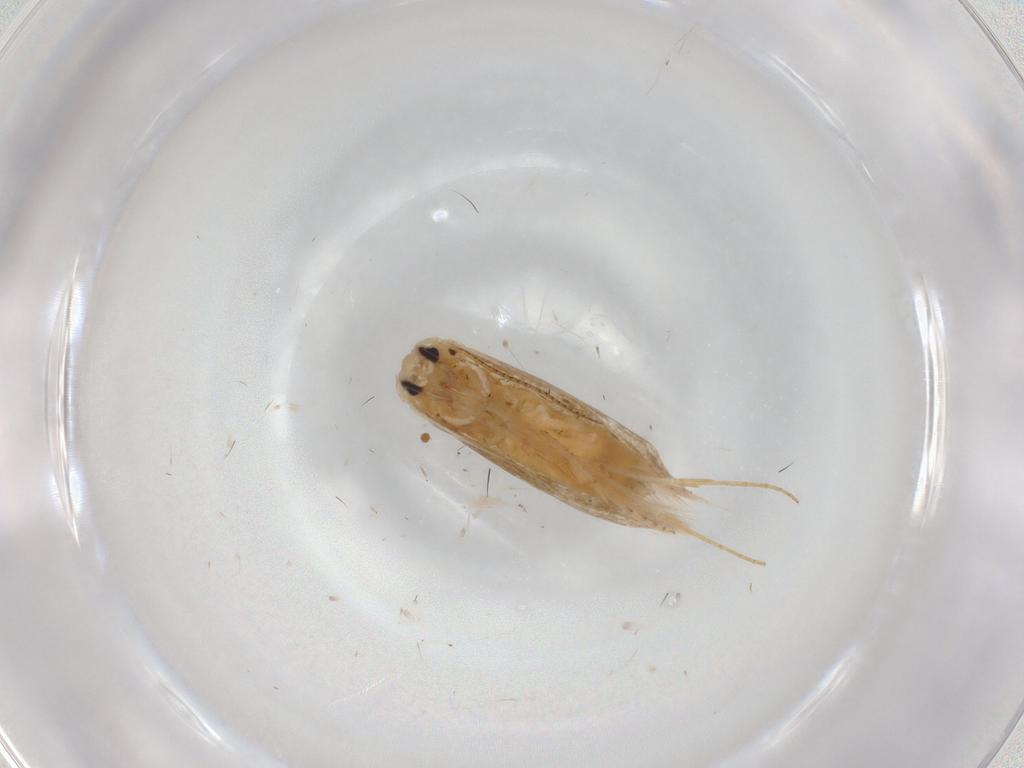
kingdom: Animalia
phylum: Arthropoda
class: Insecta
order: Lepidoptera
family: Noctuidae
